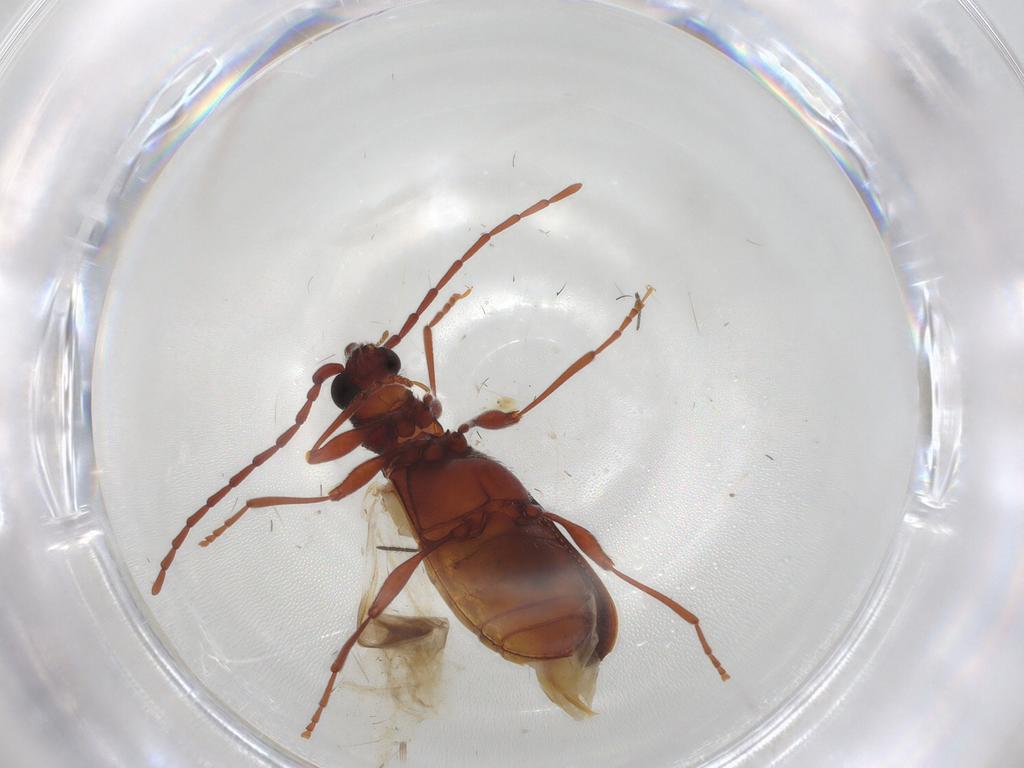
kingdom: Animalia
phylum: Arthropoda
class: Insecta
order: Coleoptera
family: Ptinidae
